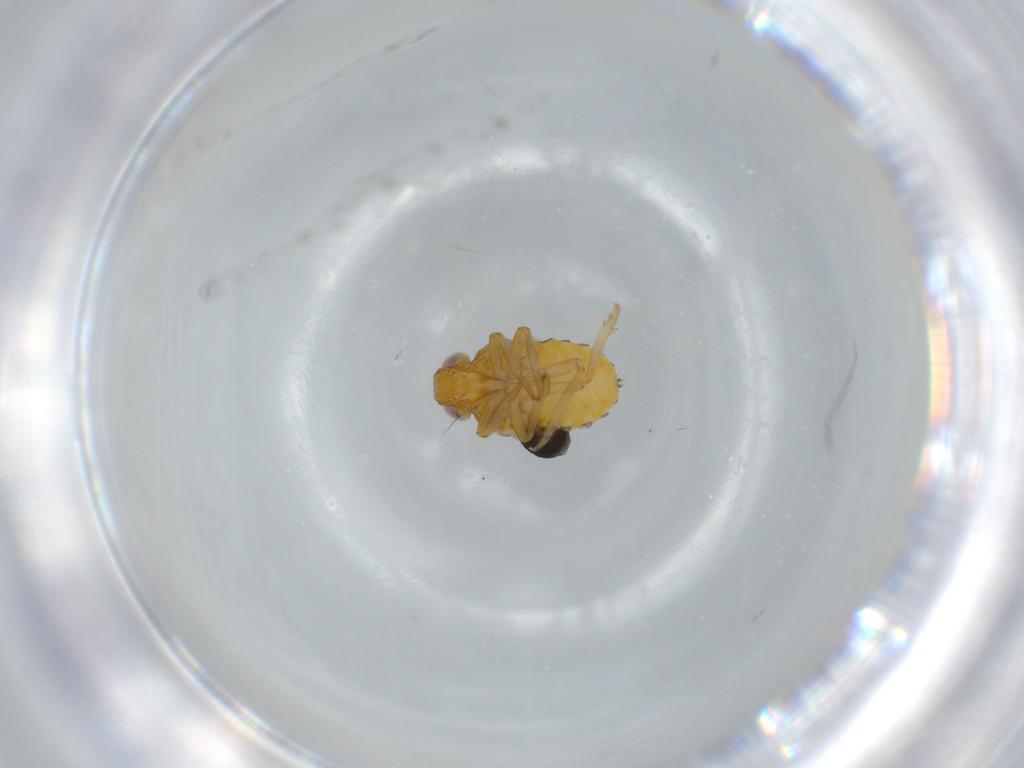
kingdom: Animalia
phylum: Arthropoda
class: Insecta
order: Hemiptera
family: Issidae
